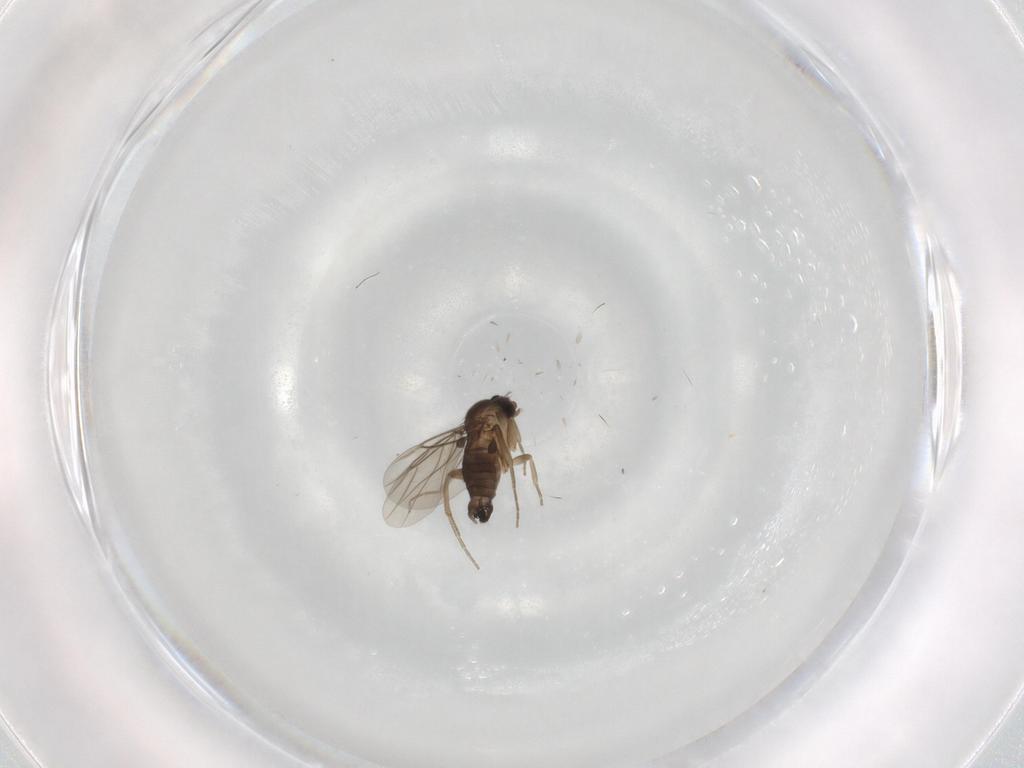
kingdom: Animalia
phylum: Arthropoda
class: Insecta
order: Diptera
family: Phoridae
